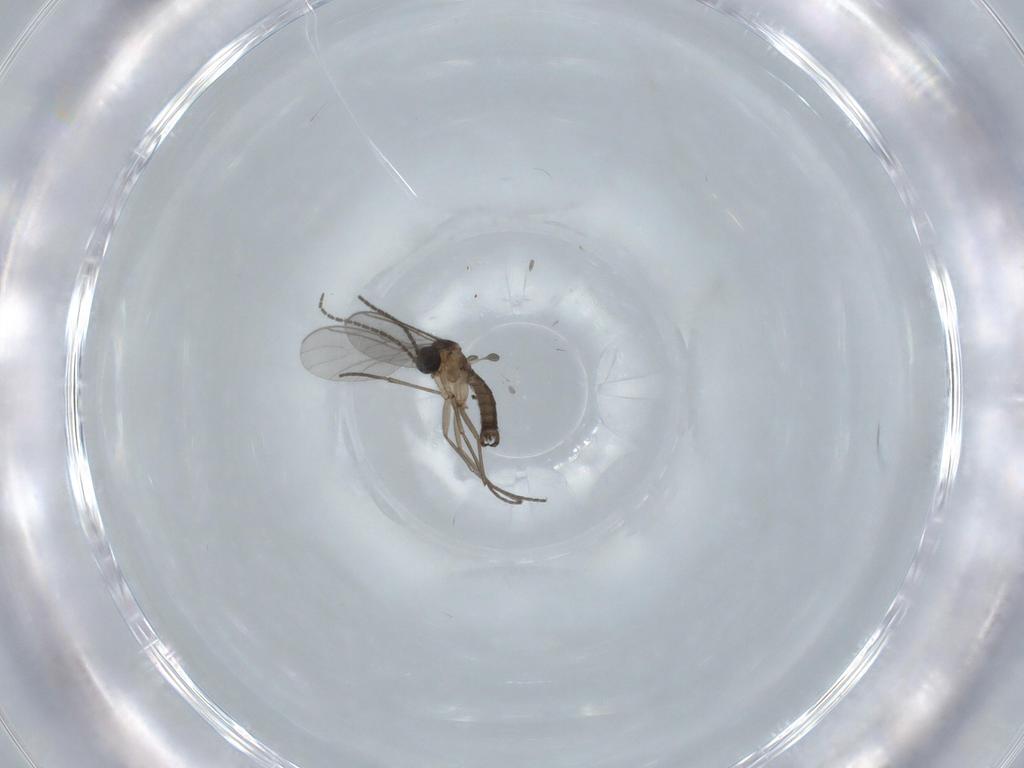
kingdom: Animalia
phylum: Arthropoda
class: Insecta
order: Diptera
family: Sciaridae
